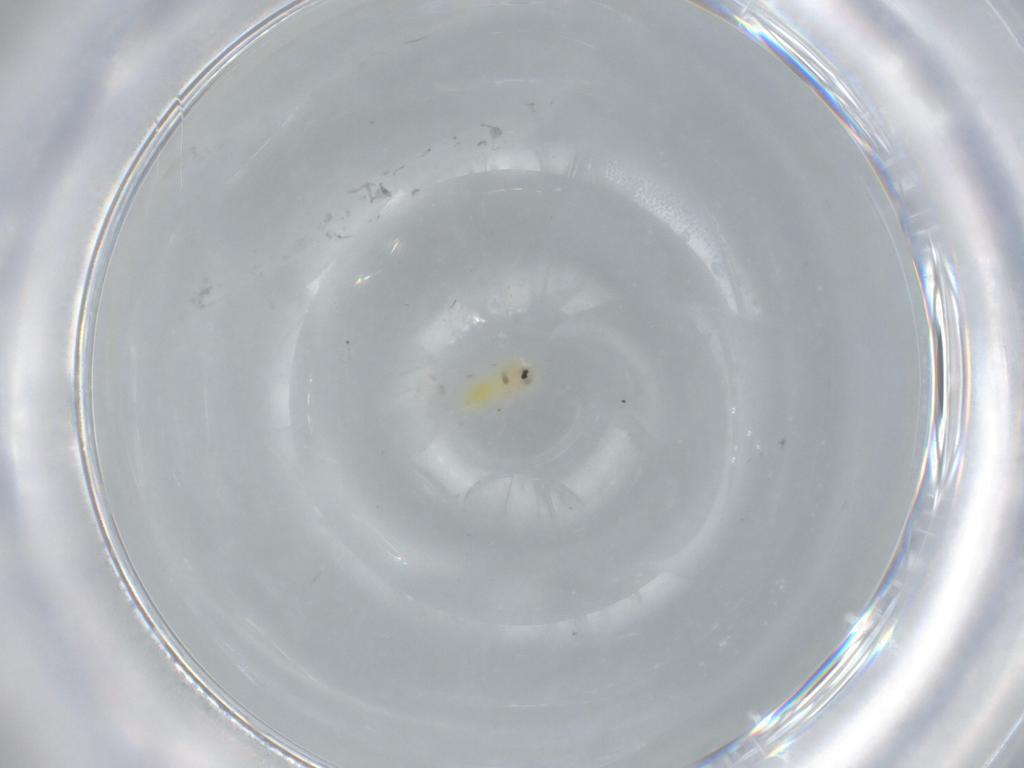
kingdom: Animalia
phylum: Arthropoda
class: Insecta
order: Hemiptera
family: Aleyrodidae
